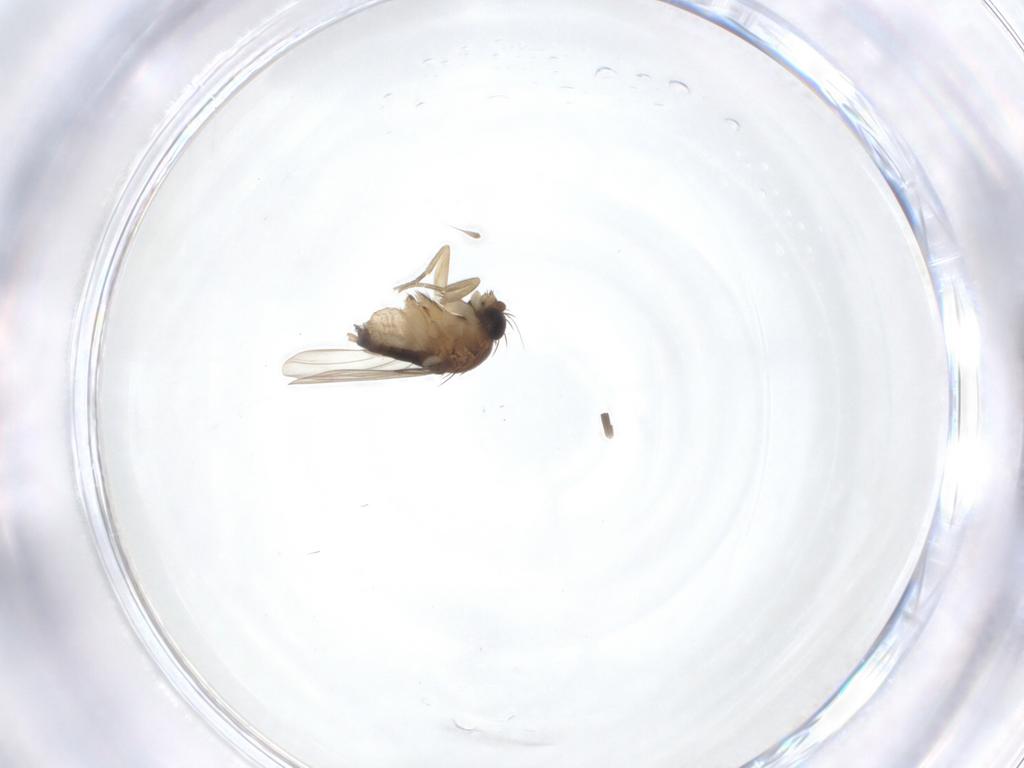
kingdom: Animalia
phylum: Arthropoda
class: Insecta
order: Diptera
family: Phoridae
